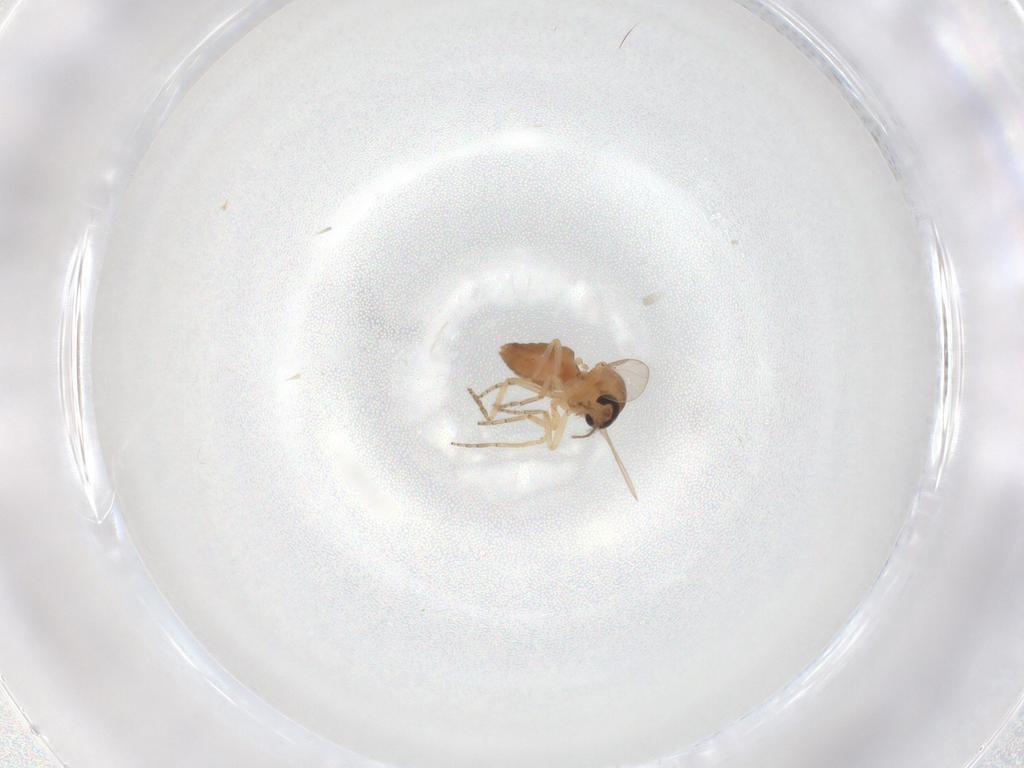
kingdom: Animalia
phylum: Arthropoda
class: Insecta
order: Diptera
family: Ceratopogonidae
